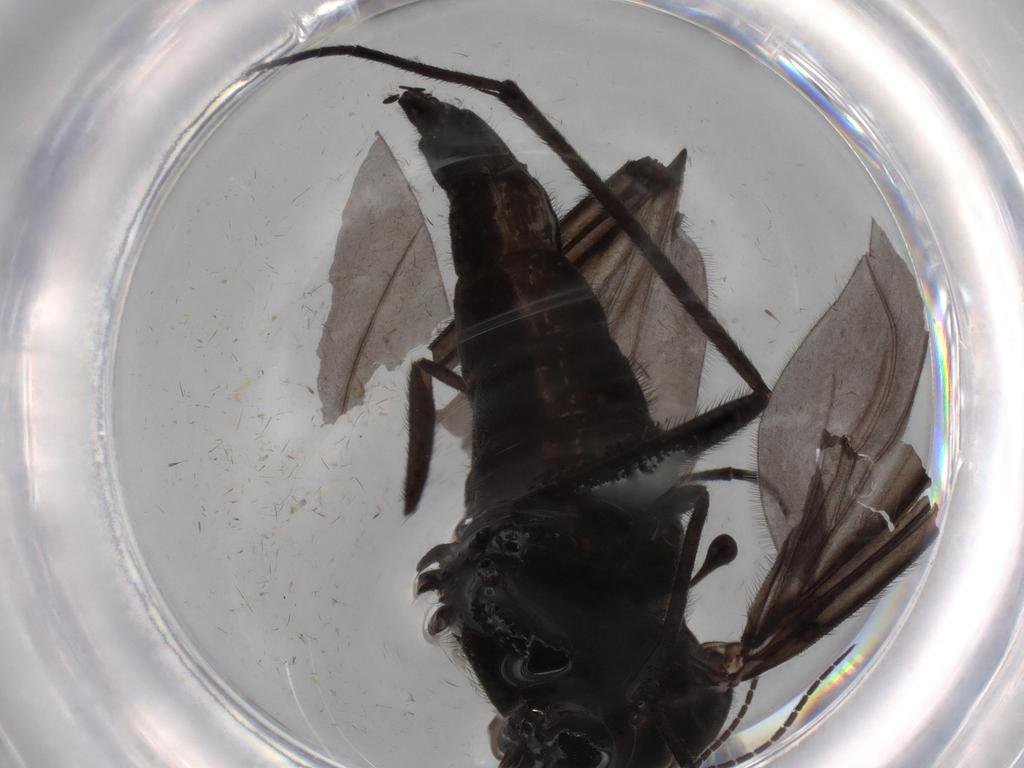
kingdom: Animalia
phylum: Arthropoda
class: Insecta
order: Diptera
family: Sciaridae
